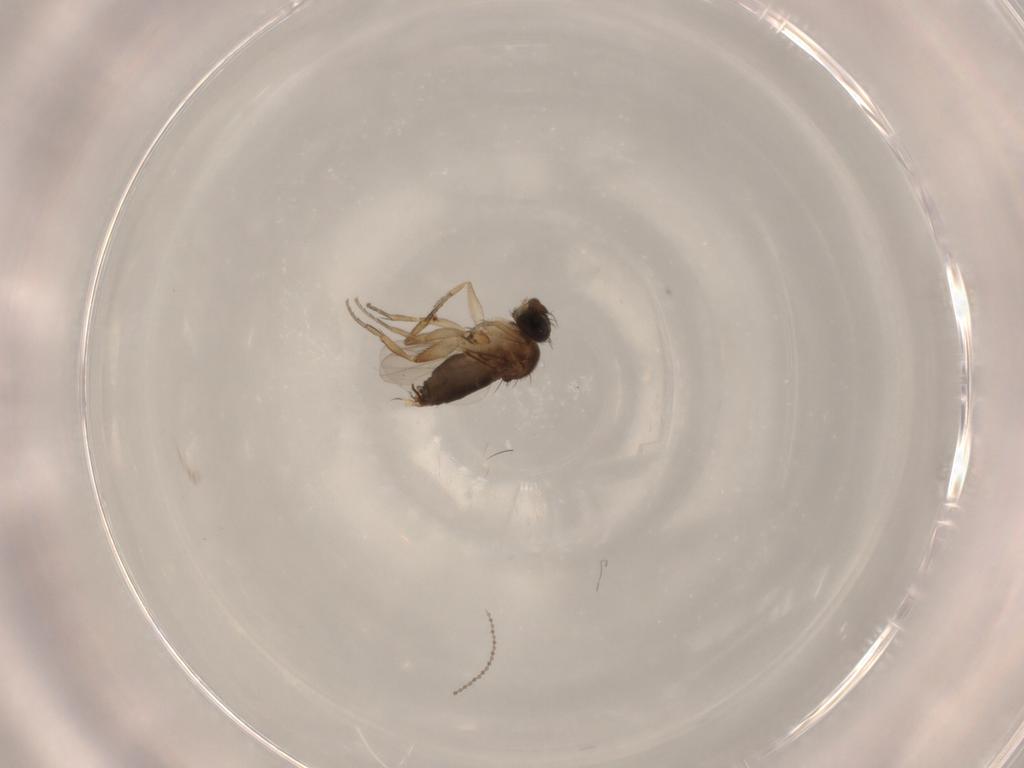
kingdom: Animalia
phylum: Arthropoda
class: Insecta
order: Diptera
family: Phoridae
